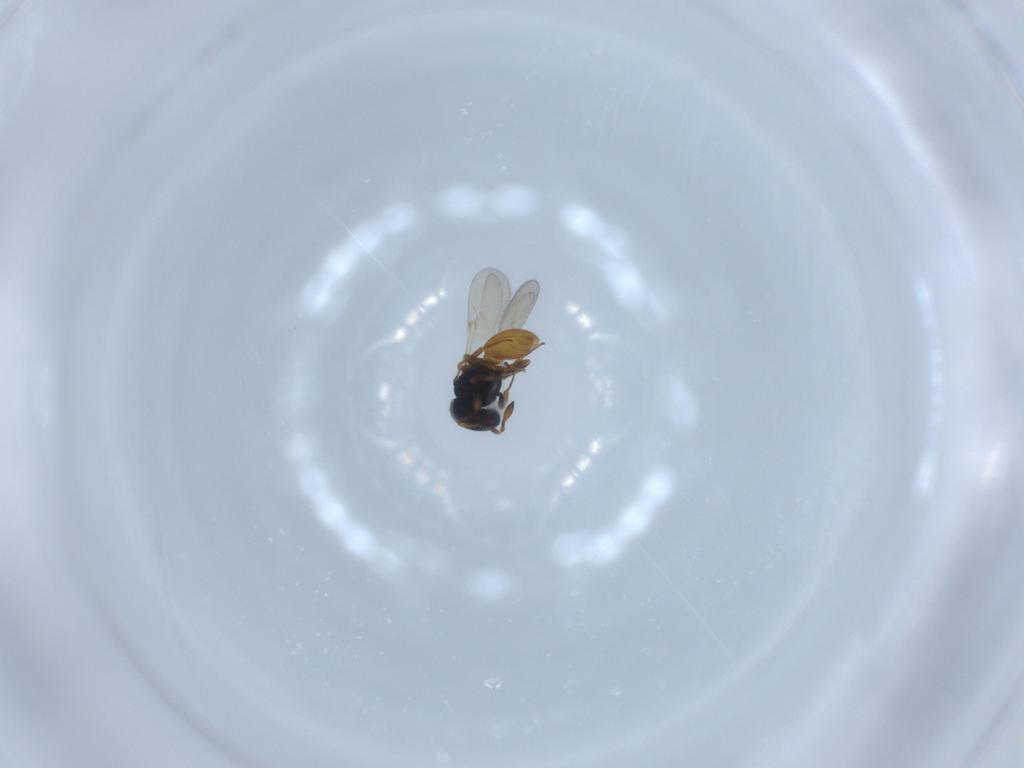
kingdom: Animalia
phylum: Arthropoda
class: Insecta
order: Hymenoptera
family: Scelionidae
